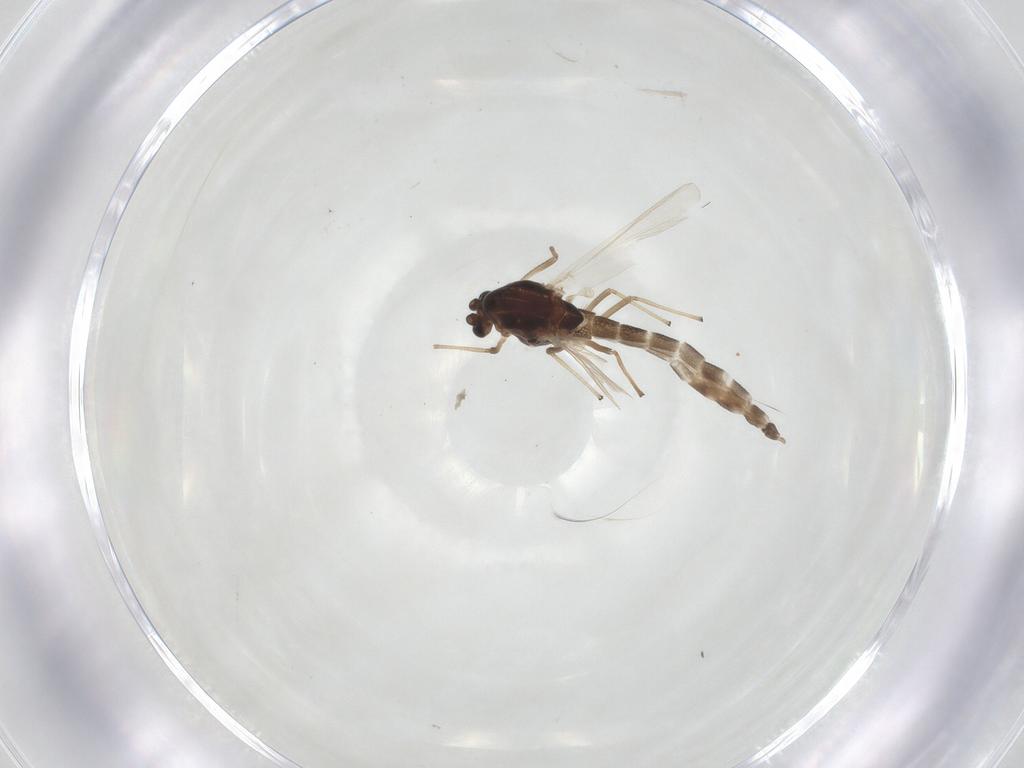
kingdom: Animalia
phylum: Arthropoda
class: Insecta
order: Diptera
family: Chironomidae
